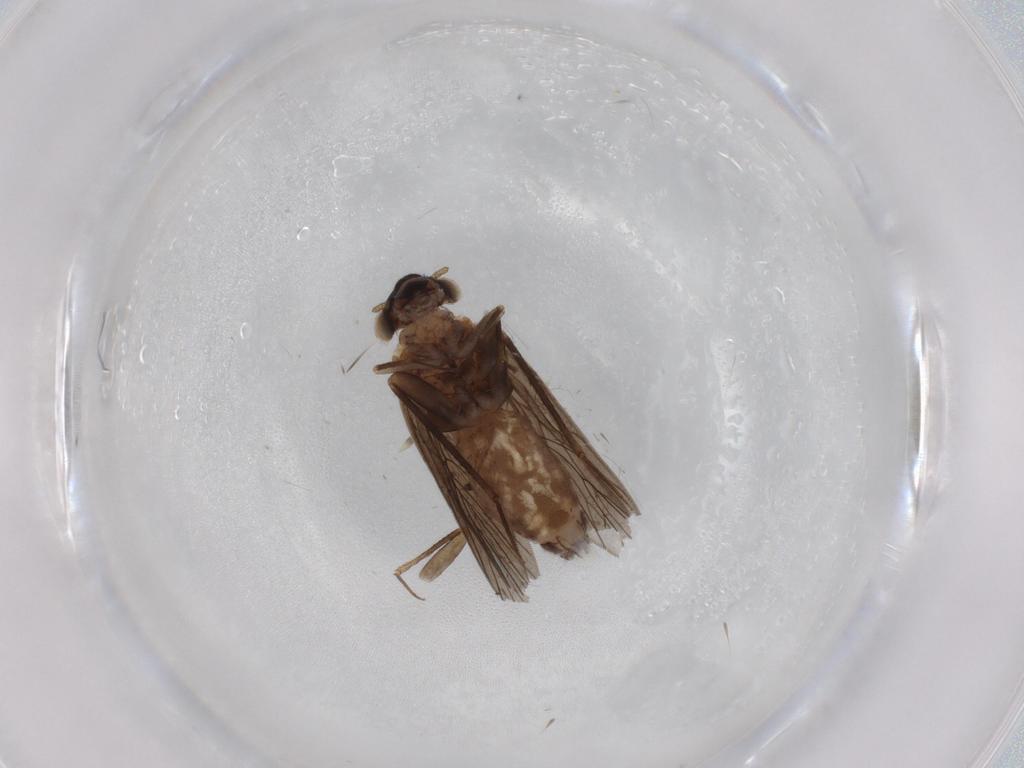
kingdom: Animalia
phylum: Arthropoda
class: Insecta
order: Psocodea
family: Lepidopsocidae
